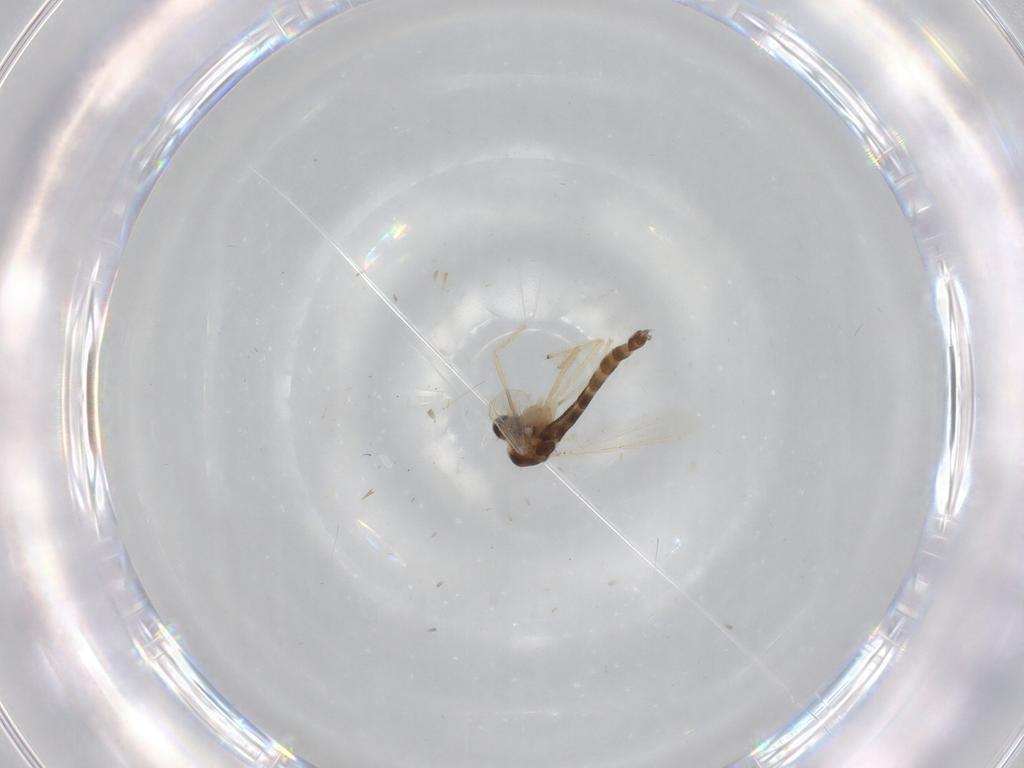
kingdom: Animalia
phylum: Arthropoda
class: Insecta
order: Diptera
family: Chironomidae
